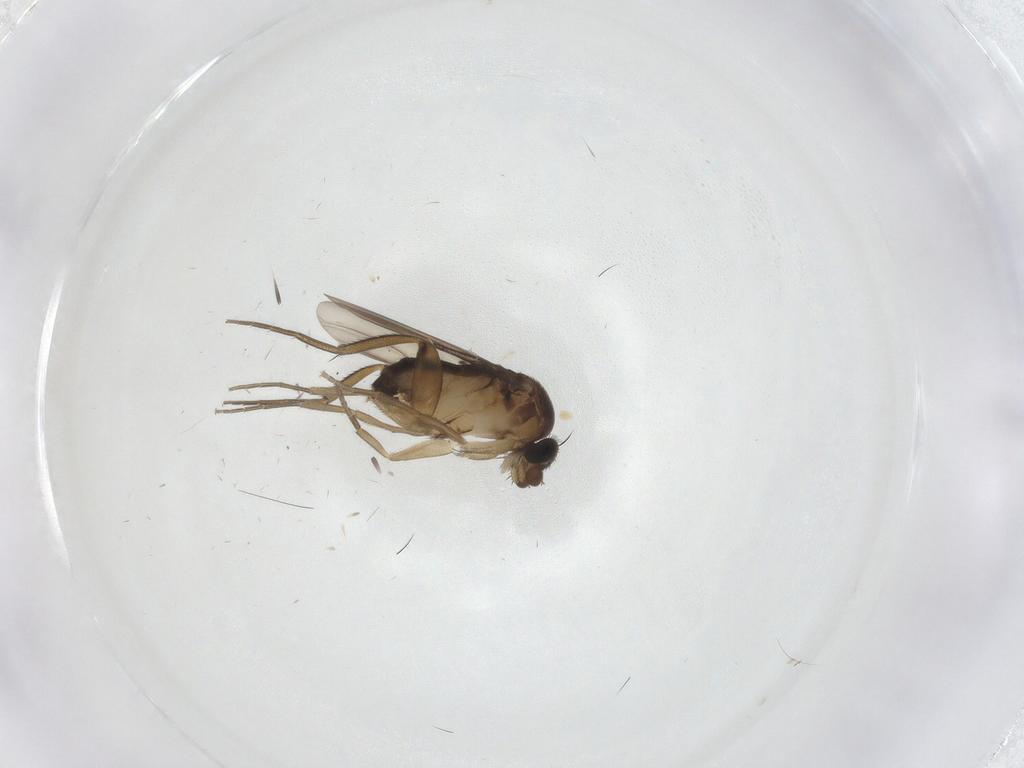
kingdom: Animalia
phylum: Arthropoda
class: Insecta
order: Diptera
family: Phoridae
